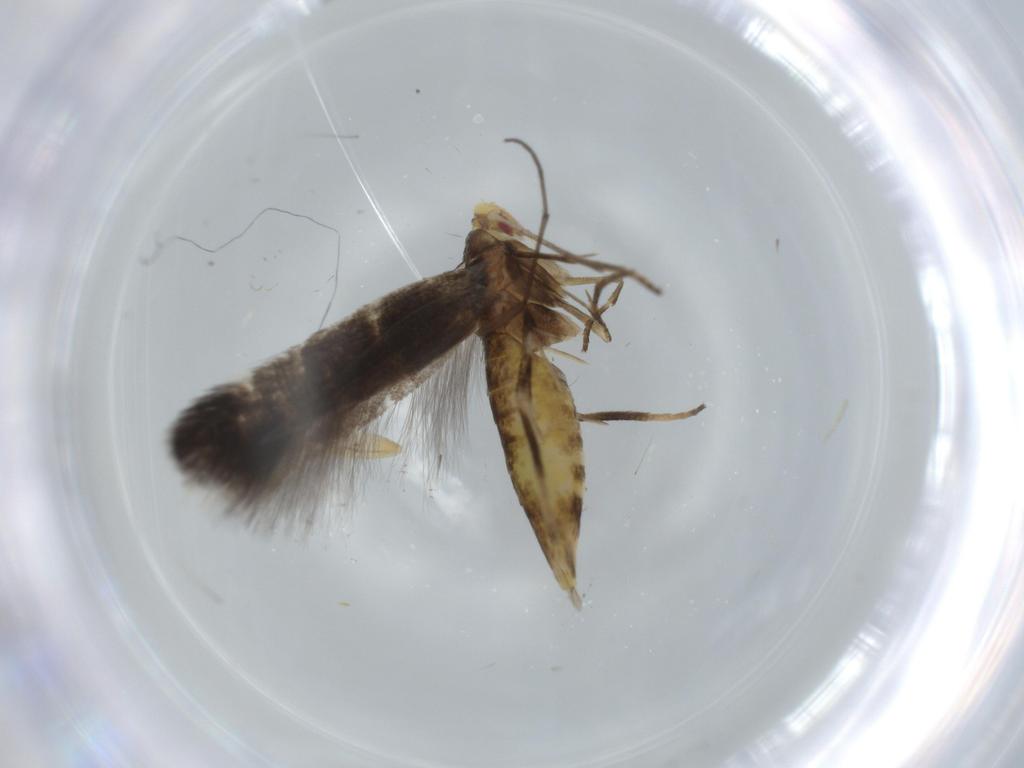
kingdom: Animalia
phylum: Arthropoda
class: Insecta
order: Lepidoptera
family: Cosmopterigidae
